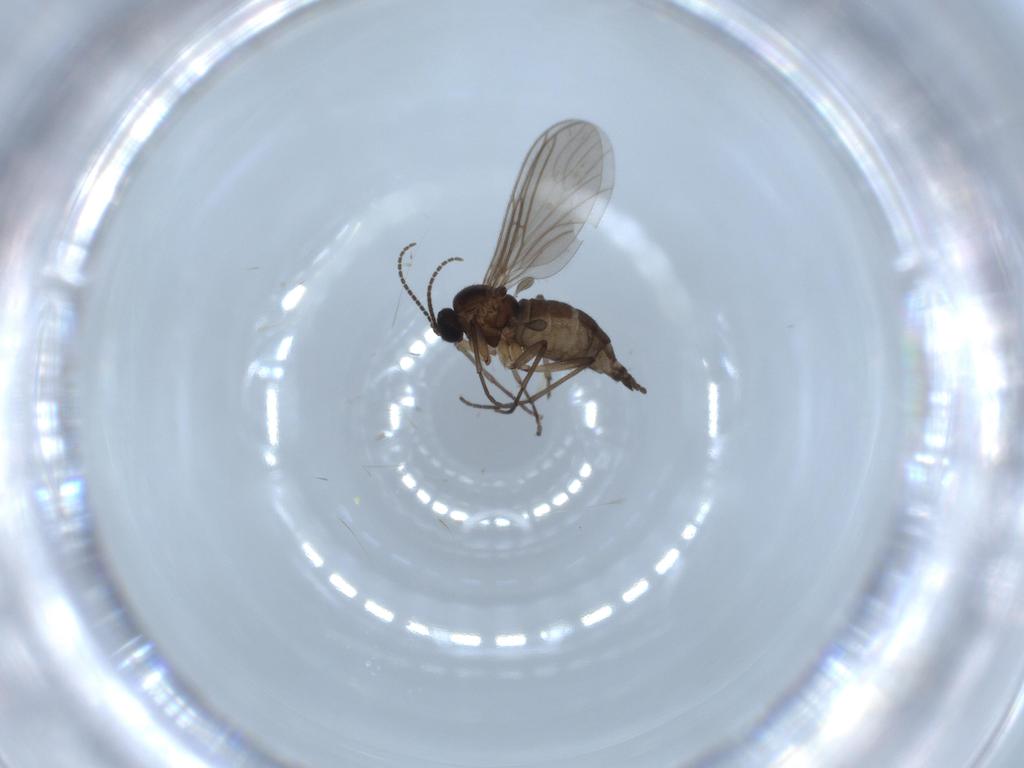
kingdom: Animalia
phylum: Arthropoda
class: Insecta
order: Diptera
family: Sciaridae
